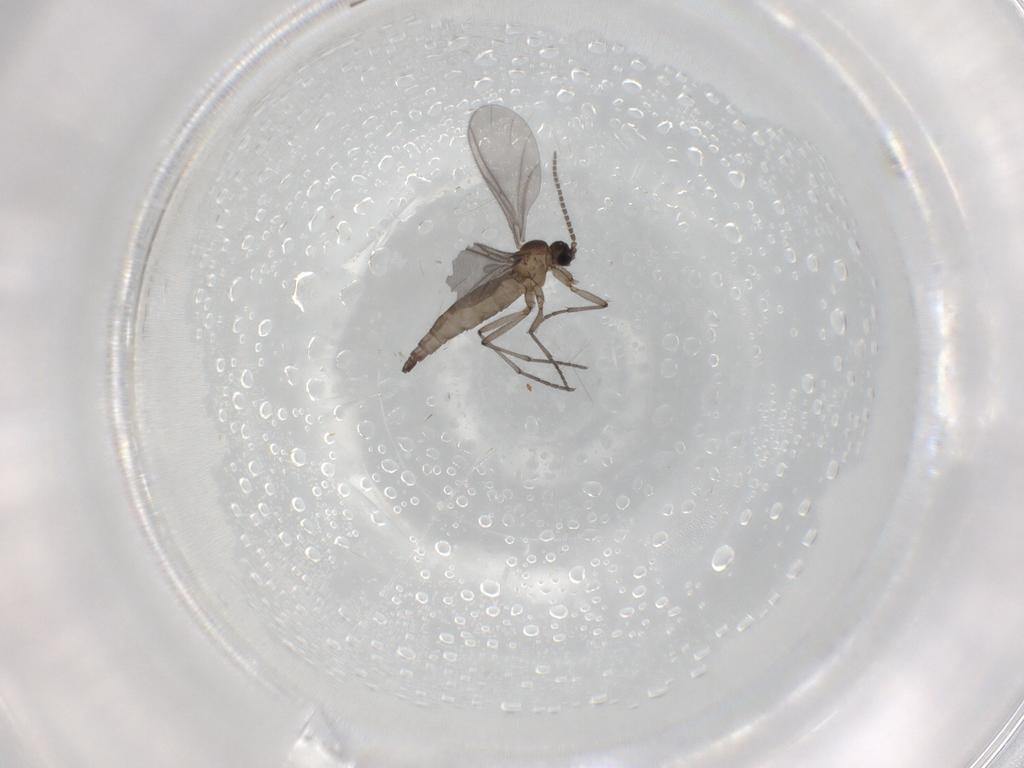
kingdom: Animalia
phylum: Arthropoda
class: Insecta
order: Diptera
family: Sciaridae
